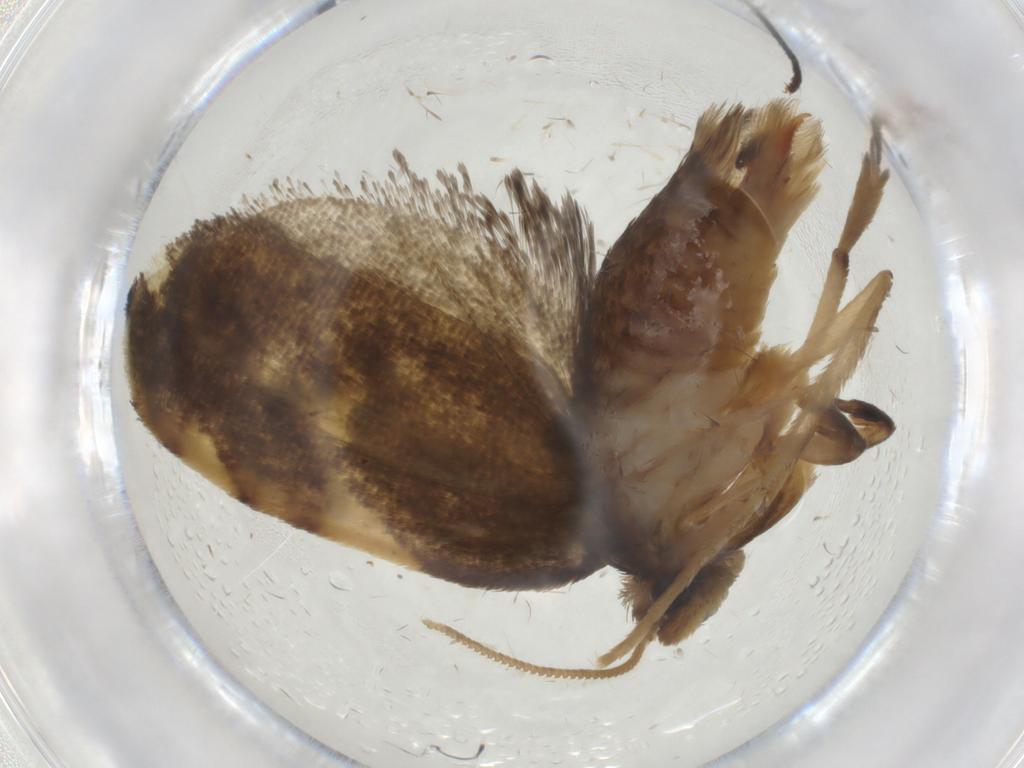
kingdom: Animalia
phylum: Arthropoda
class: Insecta
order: Lepidoptera
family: Psychidae
